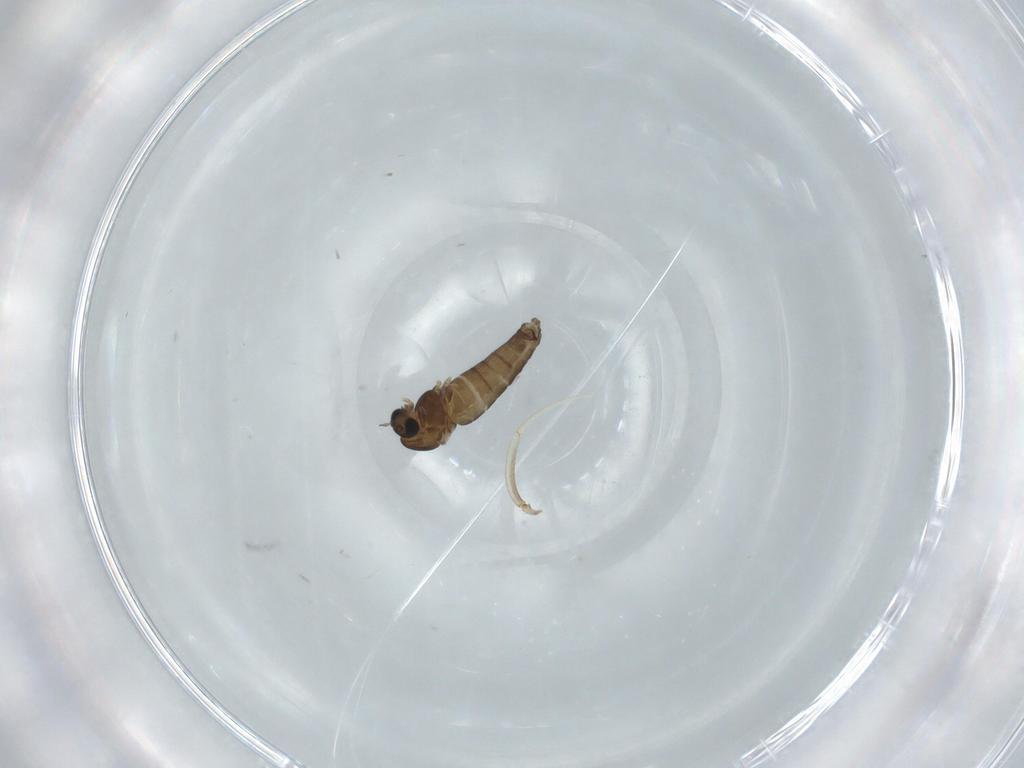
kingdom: Animalia
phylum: Arthropoda
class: Insecta
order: Diptera
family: Chironomidae
